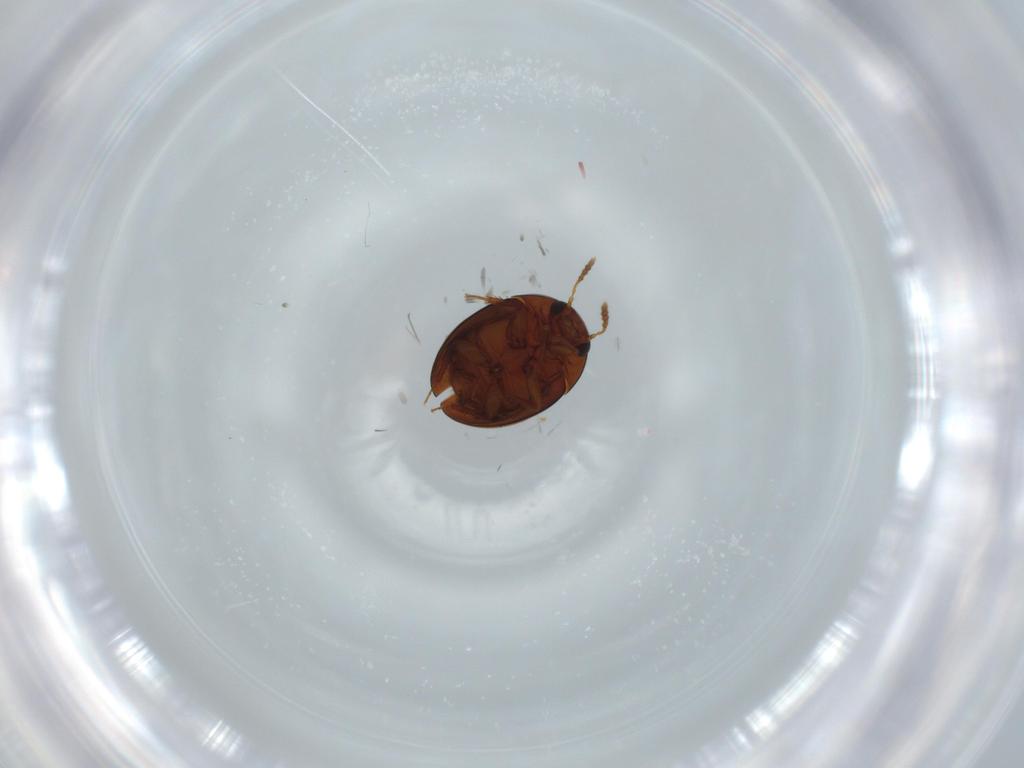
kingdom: Animalia
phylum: Arthropoda
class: Insecta
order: Coleoptera
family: Leiodidae
